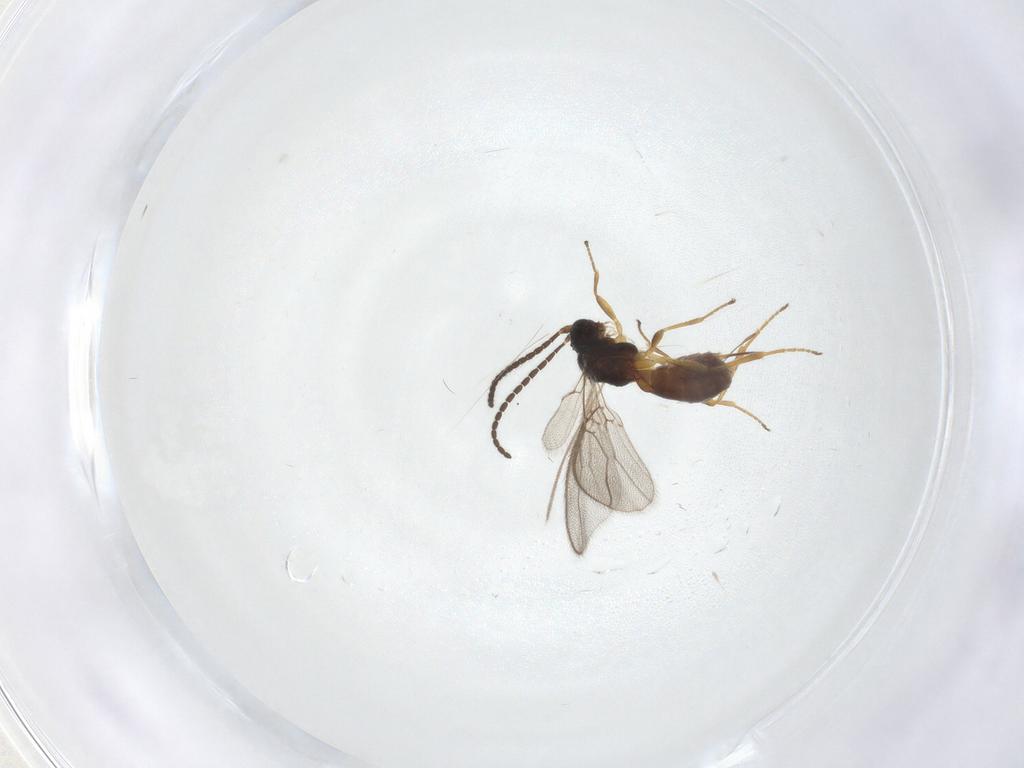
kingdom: Animalia
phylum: Arthropoda
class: Insecta
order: Hymenoptera
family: Braconidae
